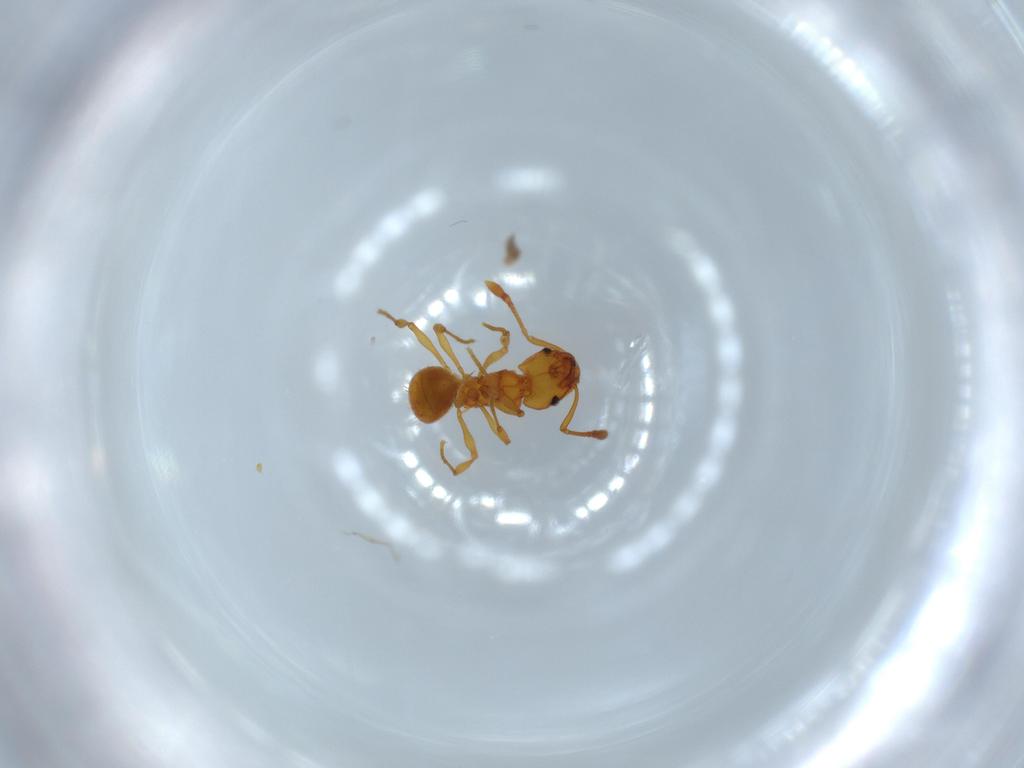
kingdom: Animalia
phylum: Arthropoda
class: Insecta
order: Hymenoptera
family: Formicidae
